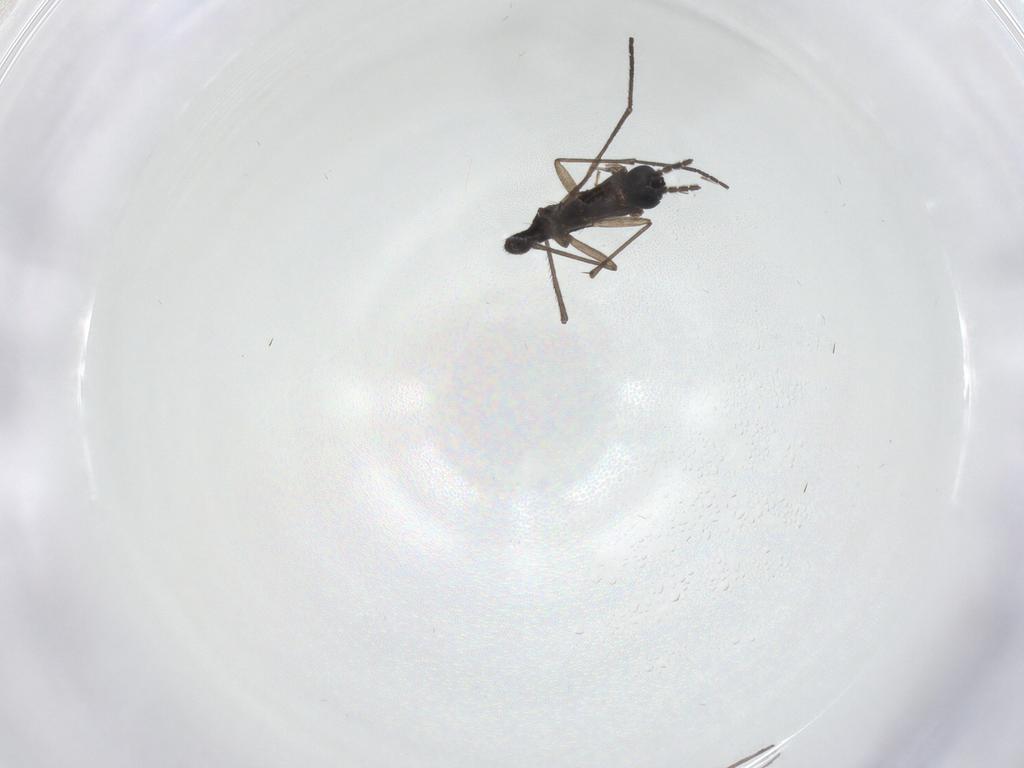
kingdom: Animalia
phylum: Arthropoda
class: Insecta
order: Diptera
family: Sciaridae
